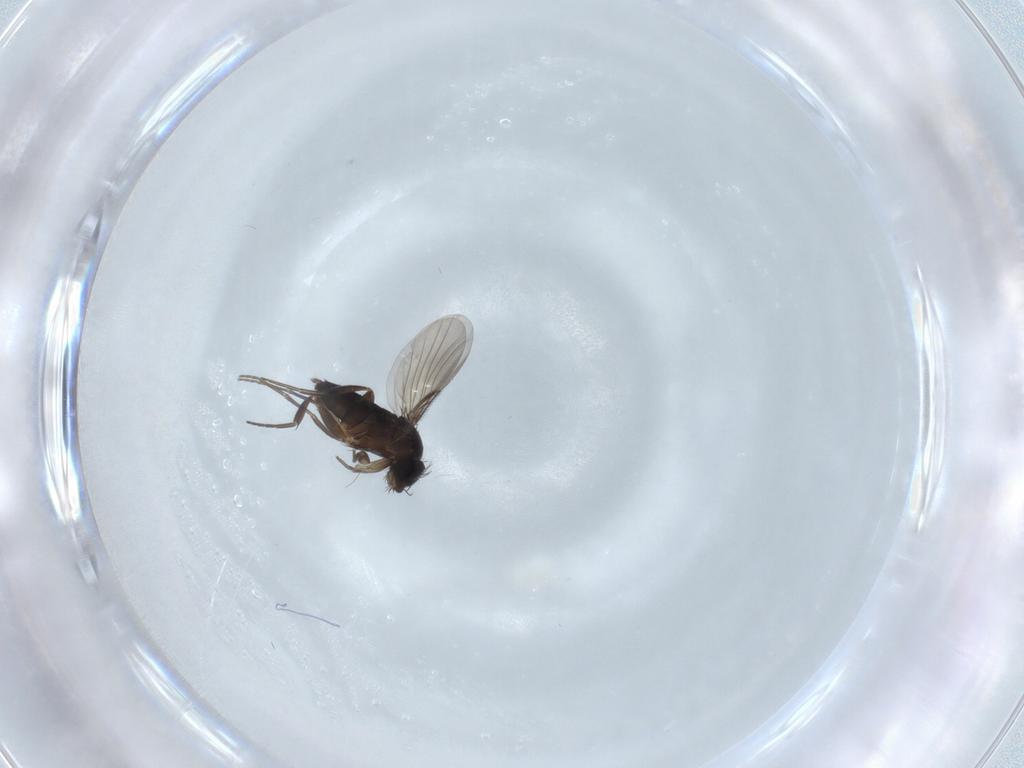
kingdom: Animalia
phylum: Arthropoda
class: Insecta
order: Diptera
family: Phoridae
